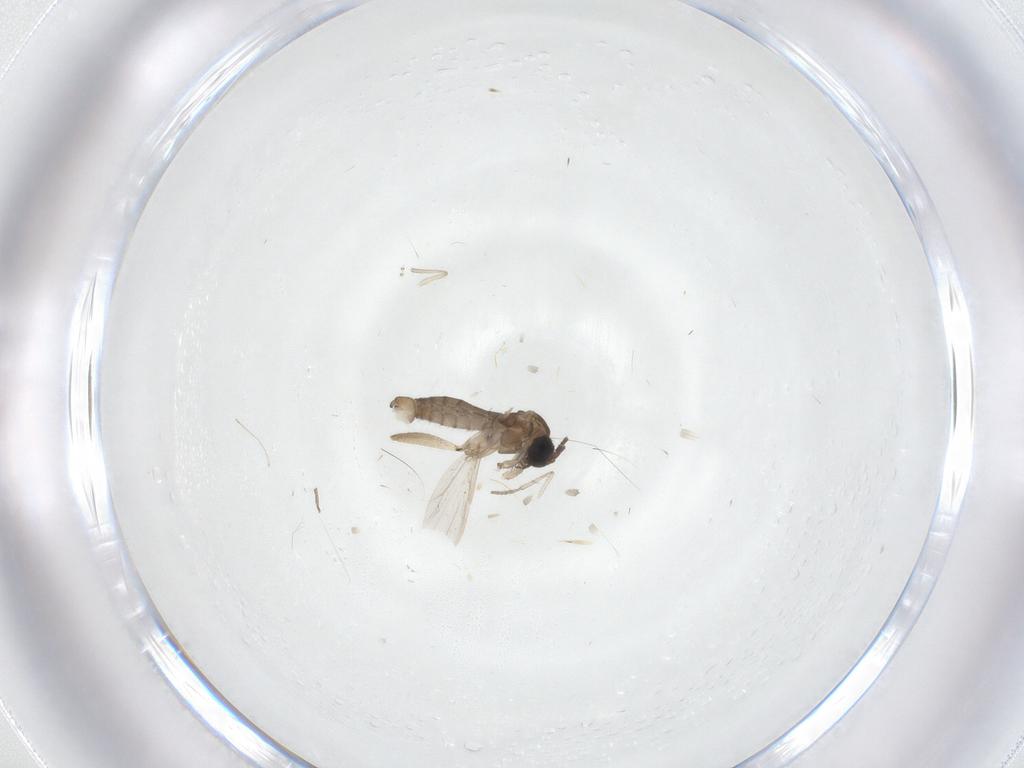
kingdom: Animalia
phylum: Arthropoda
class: Insecta
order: Diptera
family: Sciaridae
